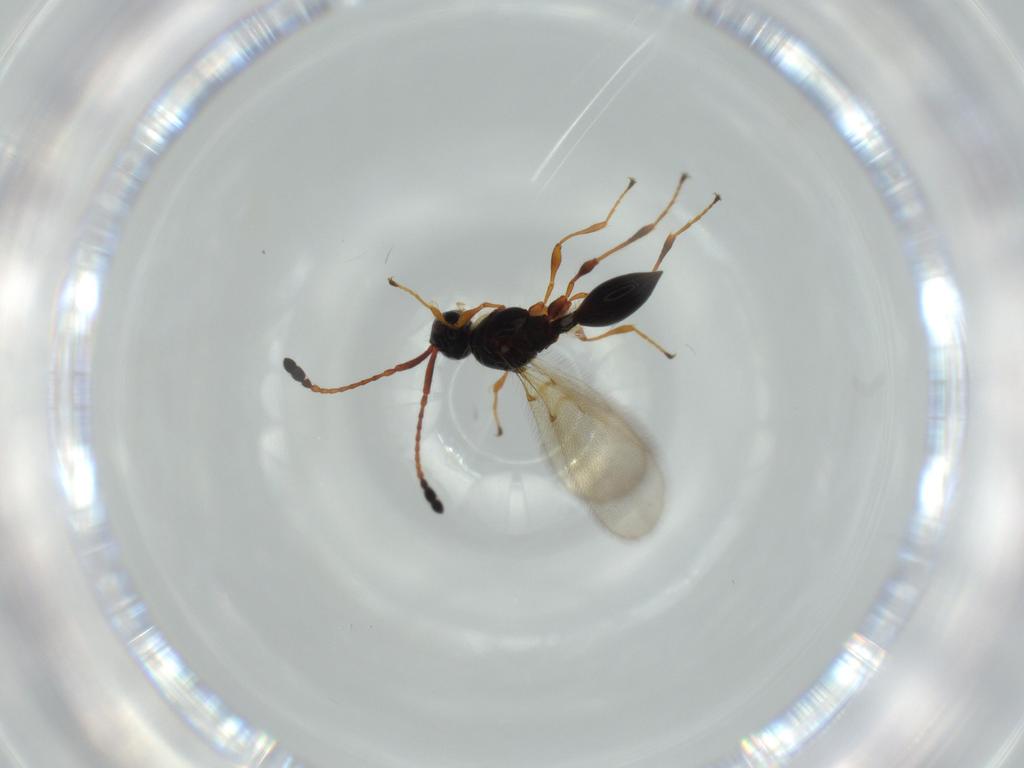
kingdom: Animalia
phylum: Arthropoda
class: Insecta
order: Hymenoptera
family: Diapriidae
